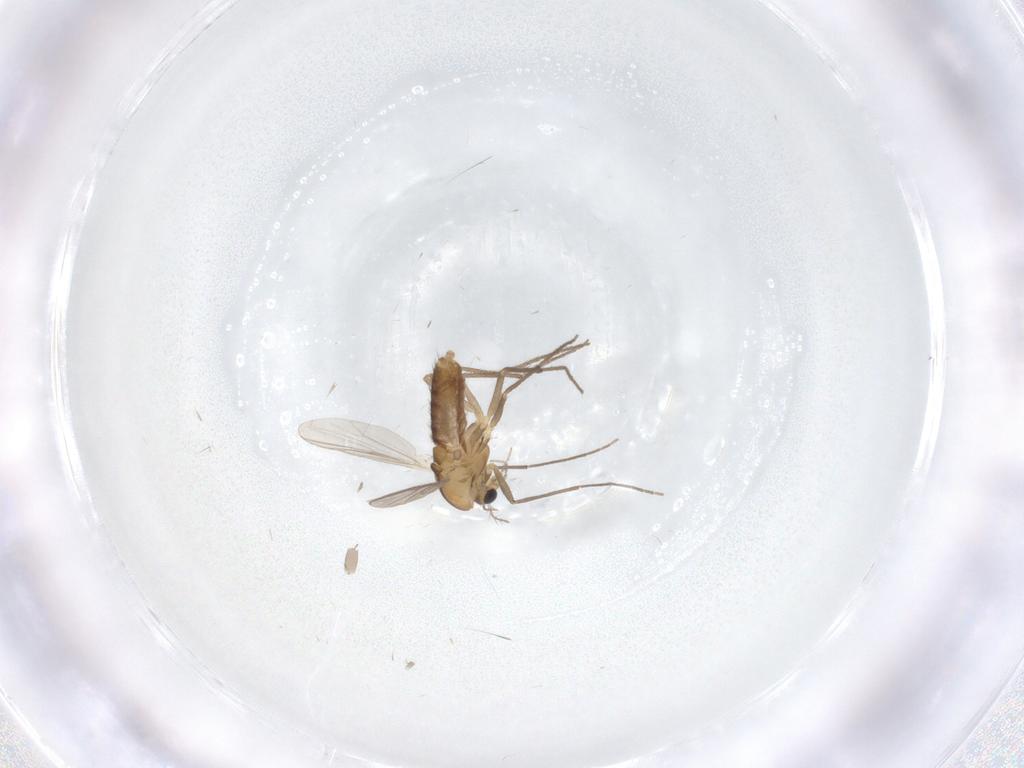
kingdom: Animalia
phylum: Arthropoda
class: Insecta
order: Diptera
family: Chironomidae
